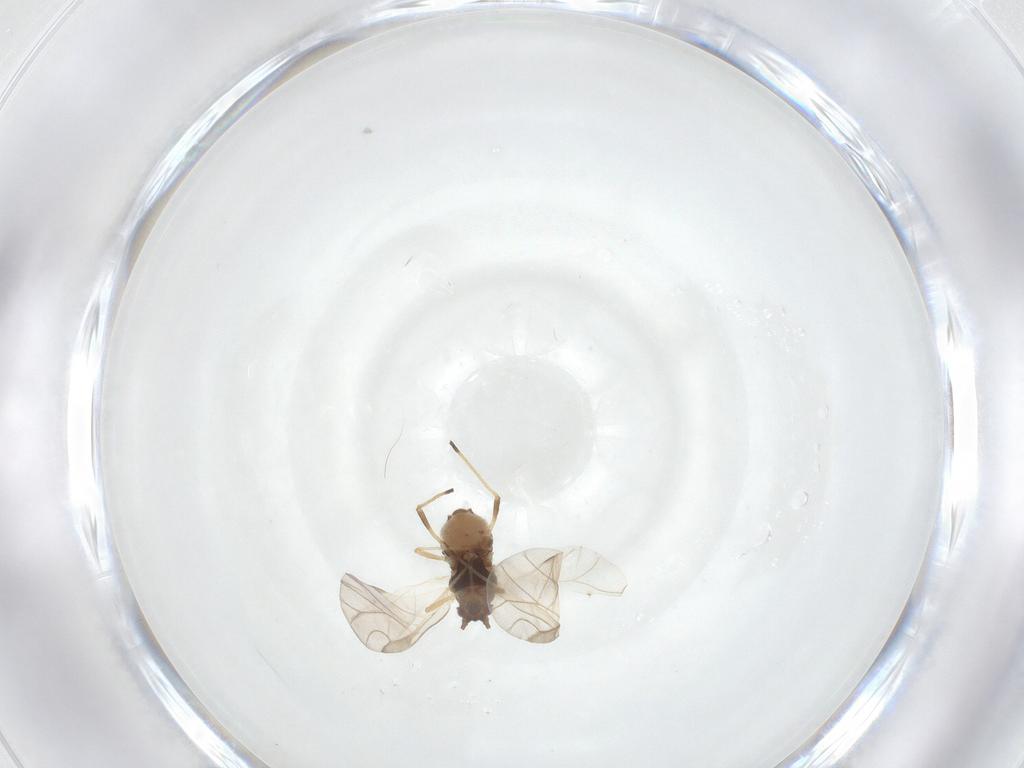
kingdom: Animalia
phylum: Arthropoda
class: Insecta
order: Hemiptera
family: Aphididae
